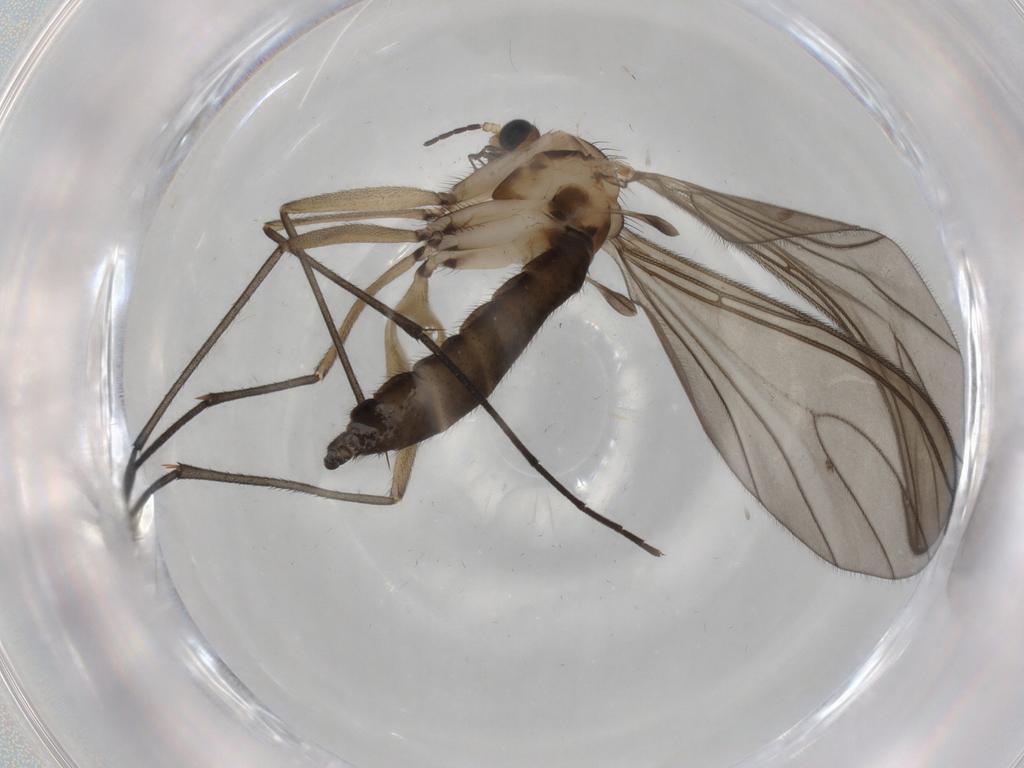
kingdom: Animalia
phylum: Arthropoda
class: Insecta
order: Diptera
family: Sciaridae
